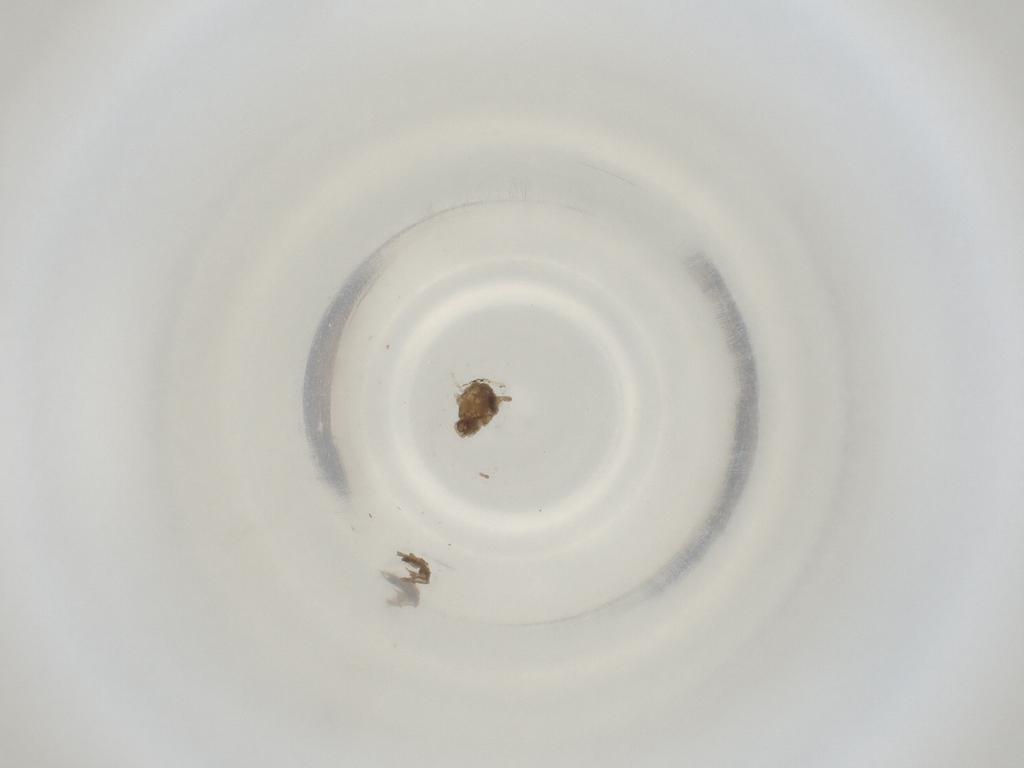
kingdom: Animalia
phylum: Arthropoda
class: Insecta
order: Diptera
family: Cecidomyiidae
